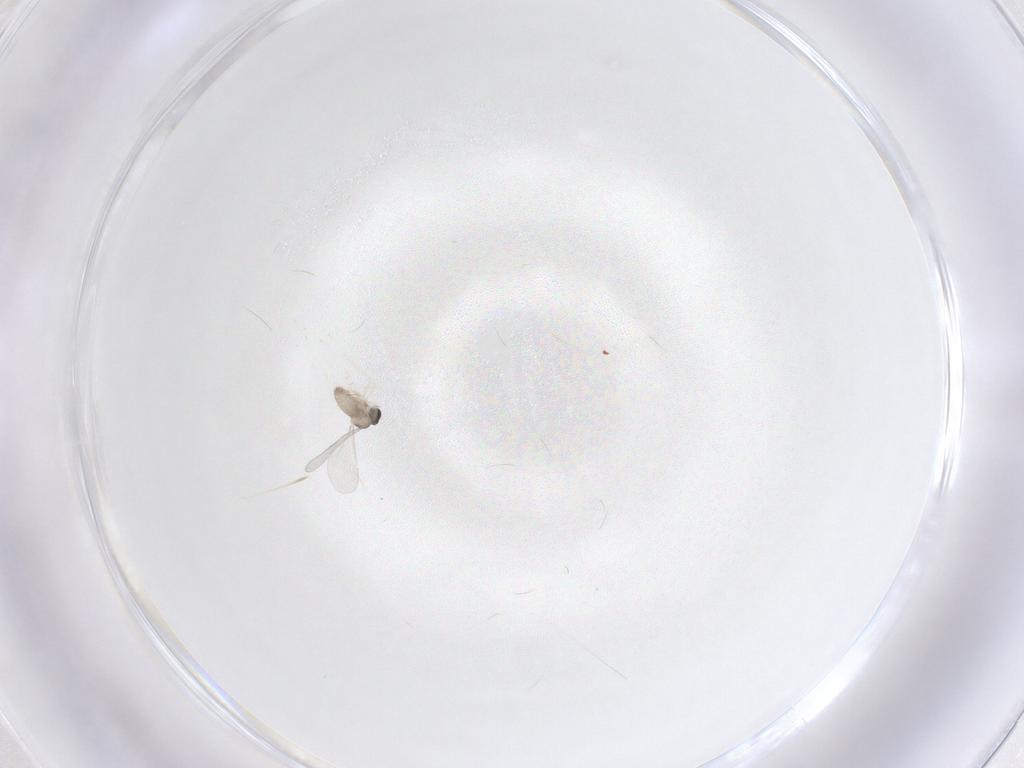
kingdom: Animalia
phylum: Arthropoda
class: Insecta
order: Diptera
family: Cecidomyiidae
